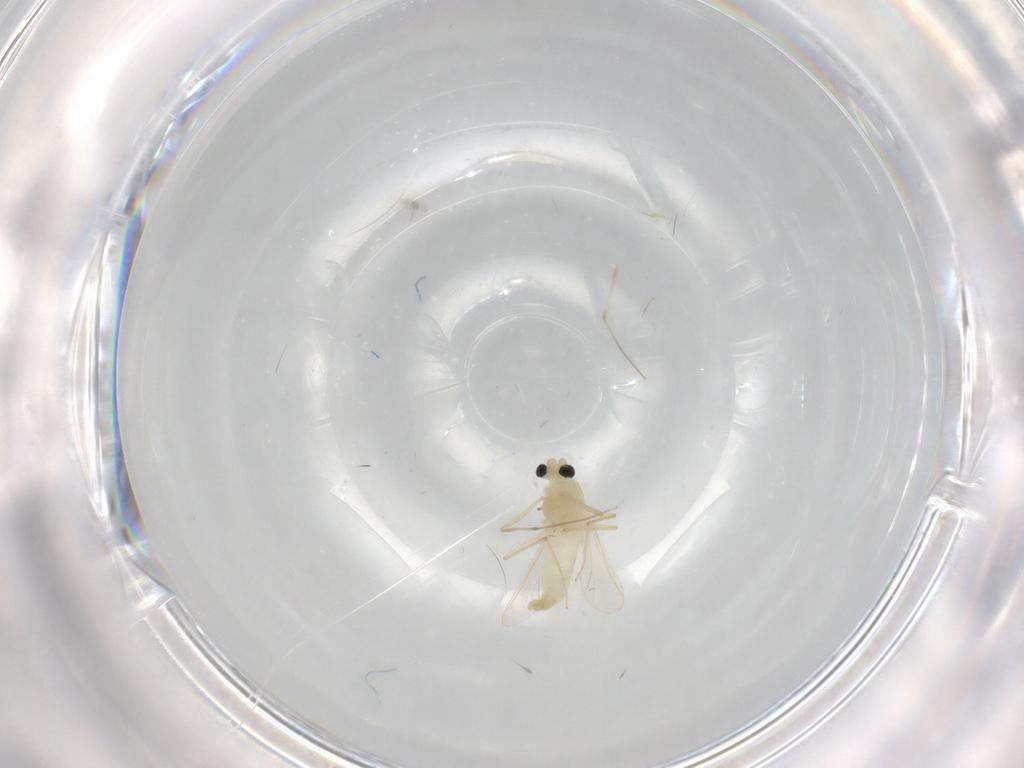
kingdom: Animalia
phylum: Arthropoda
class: Insecta
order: Diptera
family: Chironomidae
